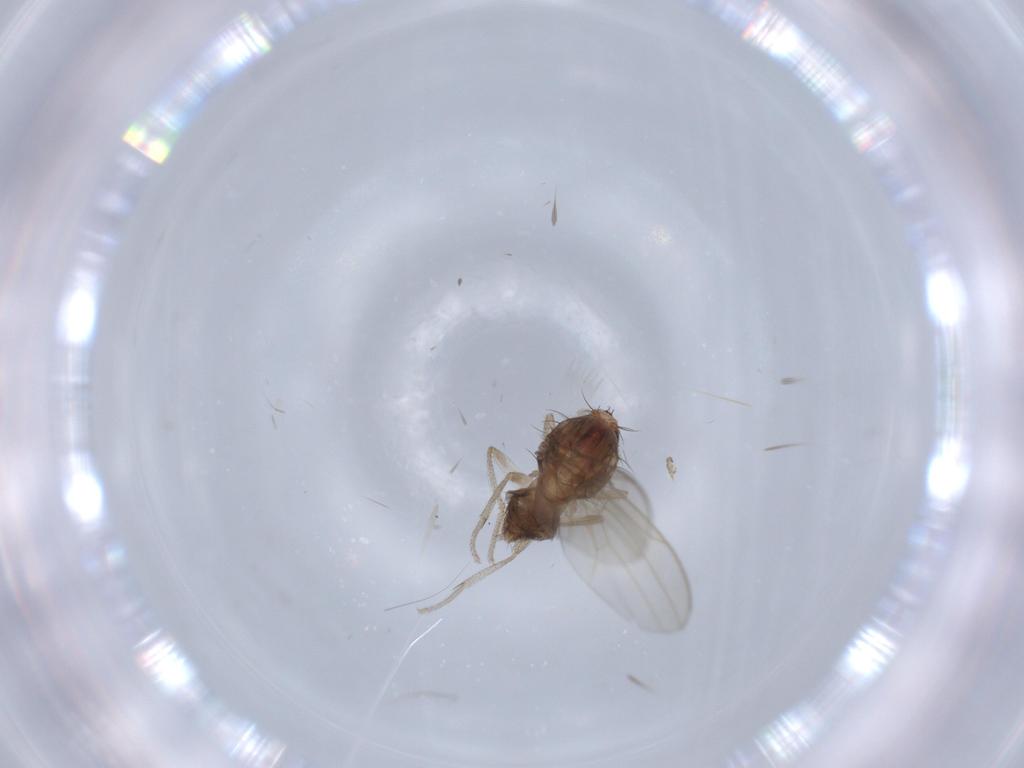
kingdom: Animalia
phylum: Arthropoda
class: Insecta
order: Diptera
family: Drosophilidae
